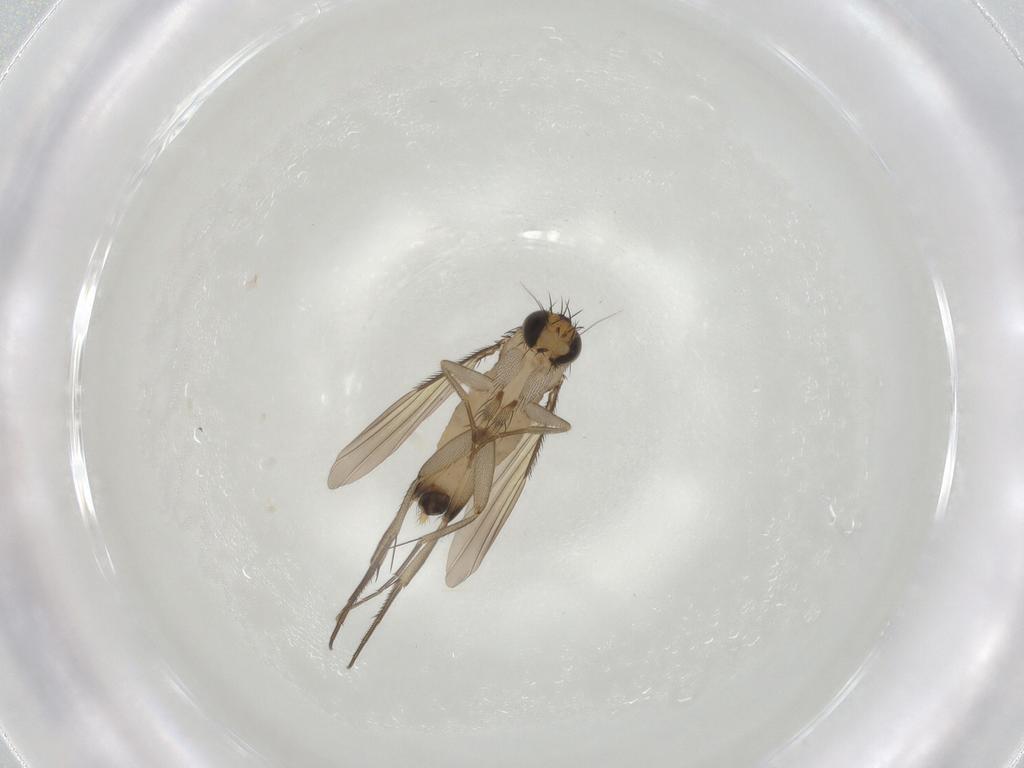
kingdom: Animalia
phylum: Arthropoda
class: Insecta
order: Diptera
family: Phoridae
